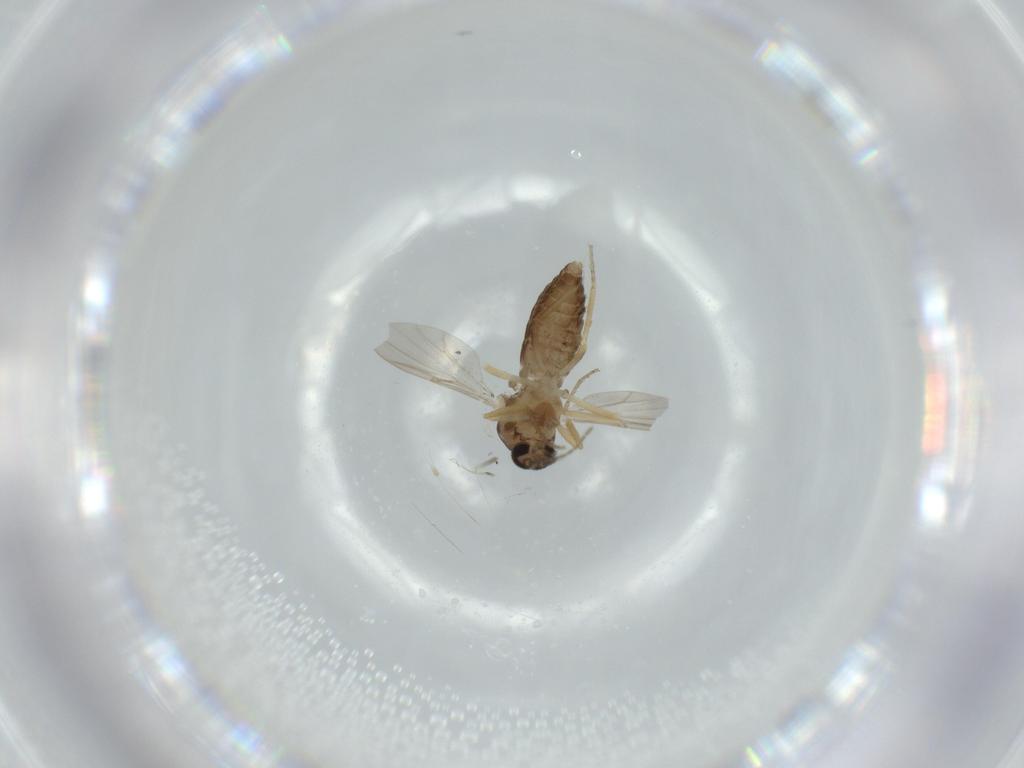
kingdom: Animalia
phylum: Arthropoda
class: Insecta
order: Diptera
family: Ceratopogonidae
